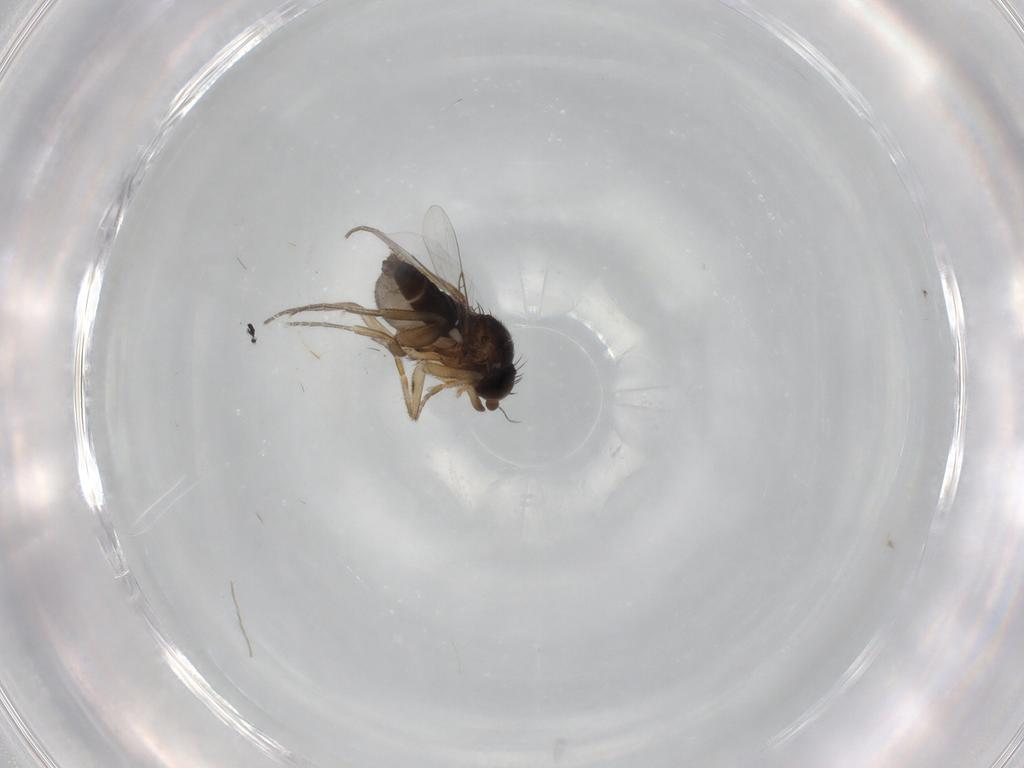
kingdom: Animalia
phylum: Arthropoda
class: Insecta
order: Diptera
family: Phoridae
